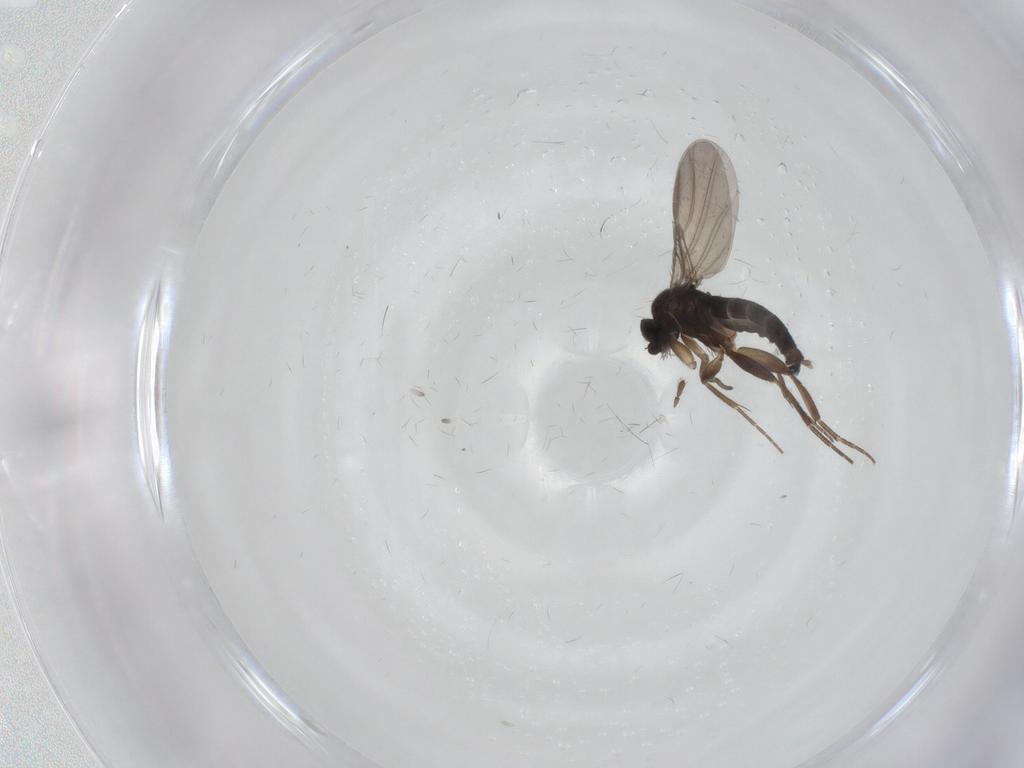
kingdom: Animalia
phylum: Arthropoda
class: Insecta
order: Diptera
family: Phoridae
